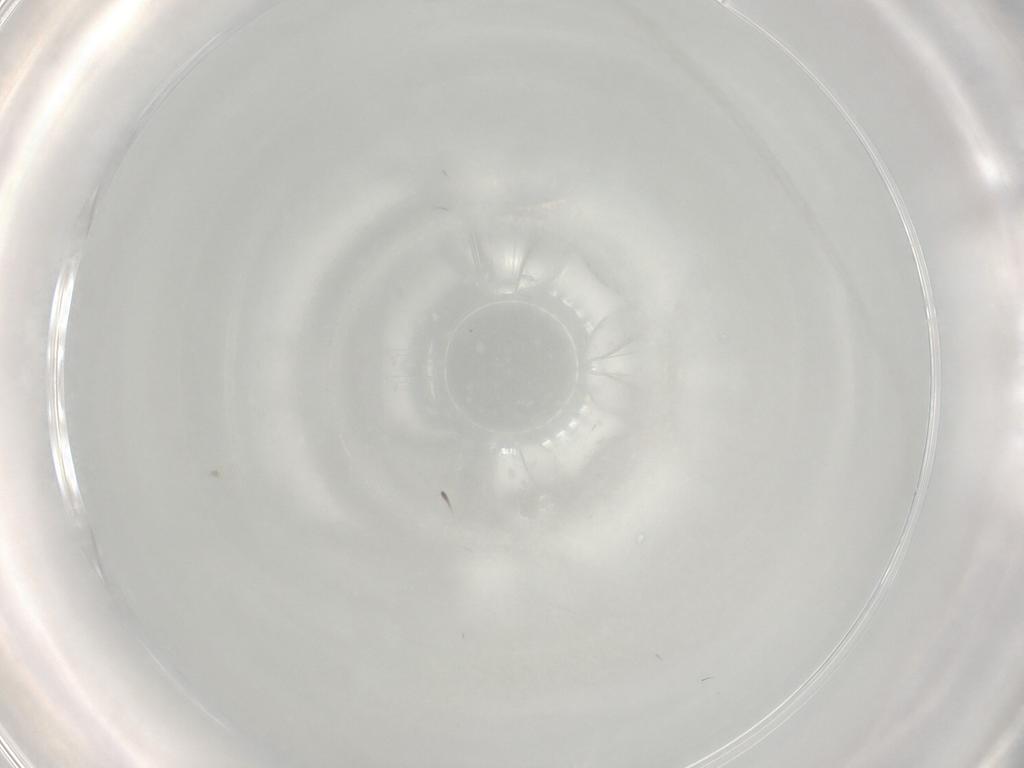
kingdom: Animalia
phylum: Arthropoda
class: Insecta
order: Diptera
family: Ceratopogonidae
